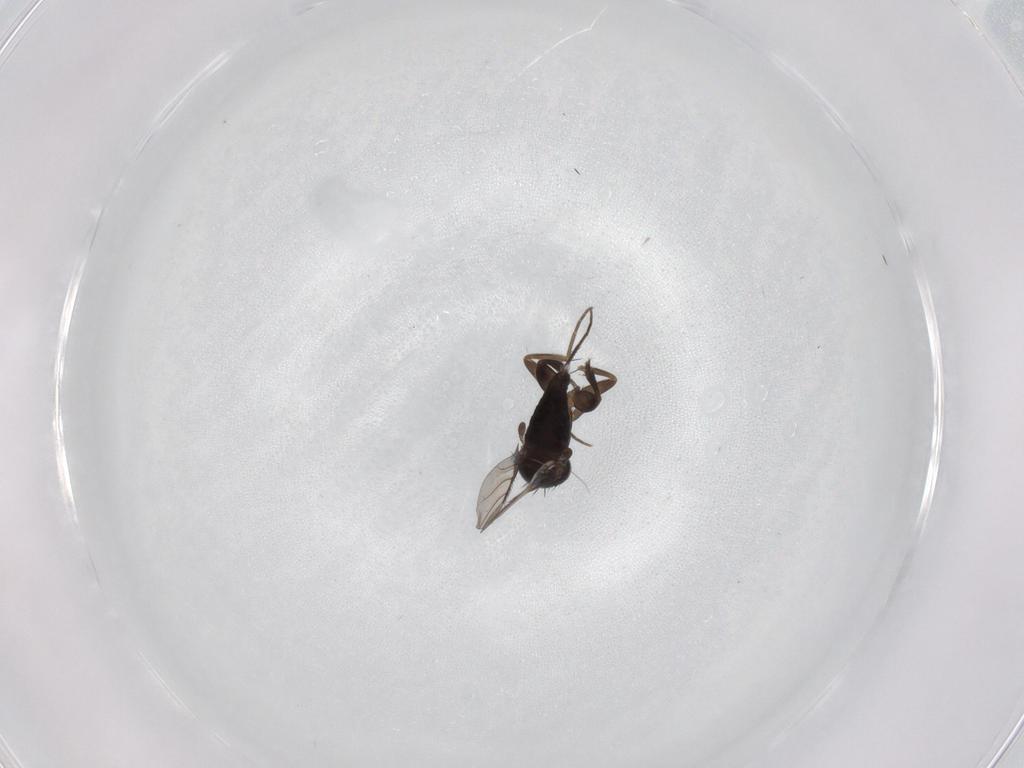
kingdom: Animalia
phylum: Arthropoda
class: Insecta
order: Diptera
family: Phoridae
